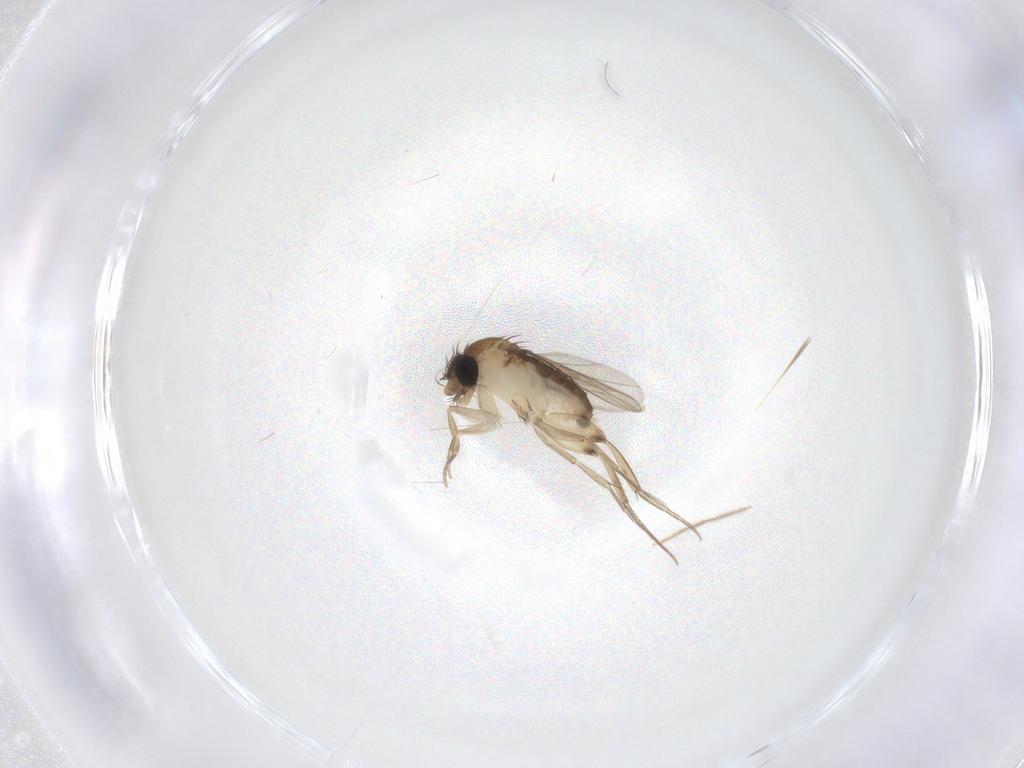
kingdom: Animalia
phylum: Arthropoda
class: Insecta
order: Diptera
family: Phoridae
